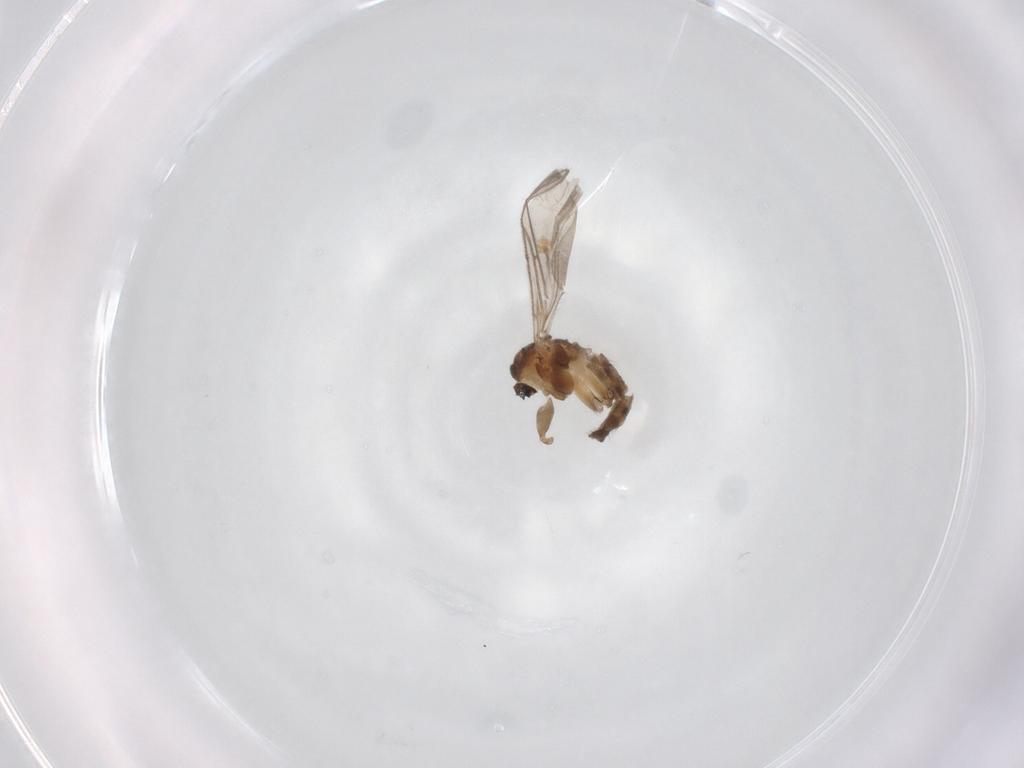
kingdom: Animalia
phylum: Arthropoda
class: Insecta
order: Diptera
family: Sciaridae
